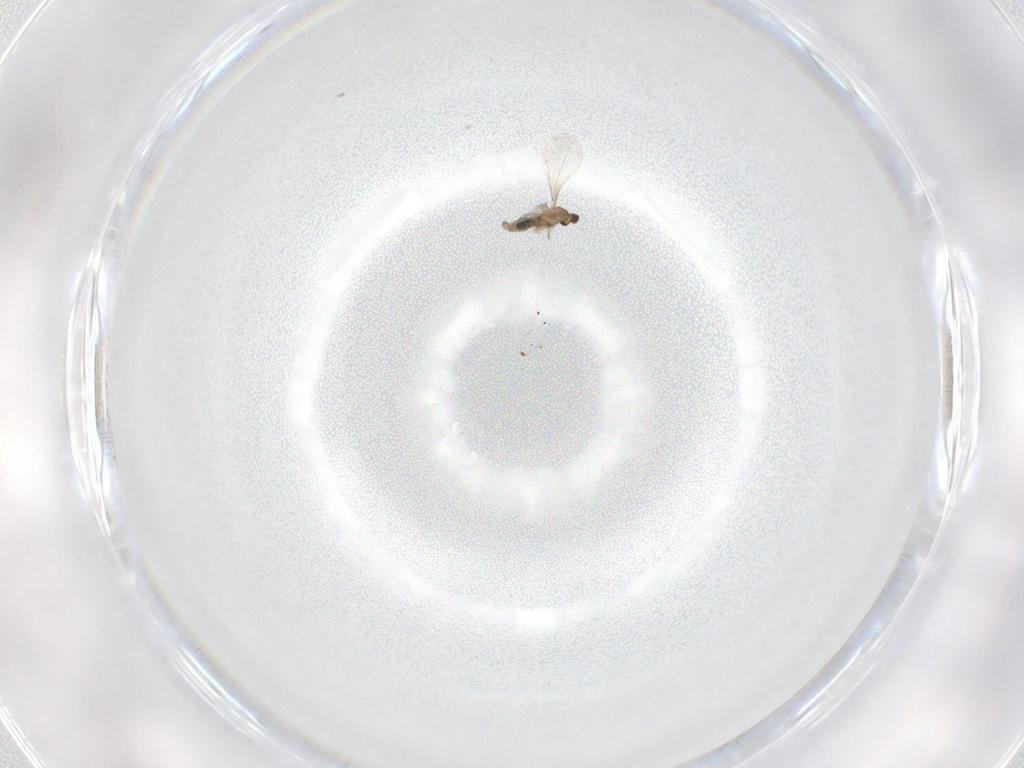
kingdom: Animalia
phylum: Arthropoda
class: Insecta
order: Diptera
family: Cecidomyiidae
